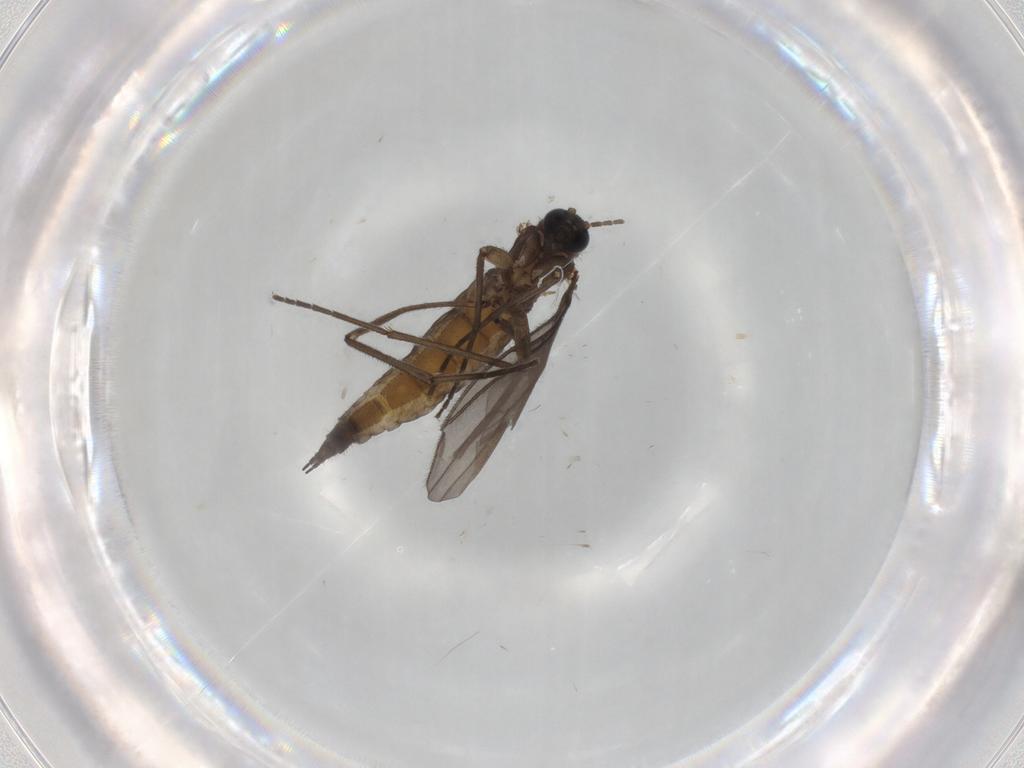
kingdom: Animalia
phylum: Arthropoda
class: Insecta
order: Diptera
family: Sciaridae
